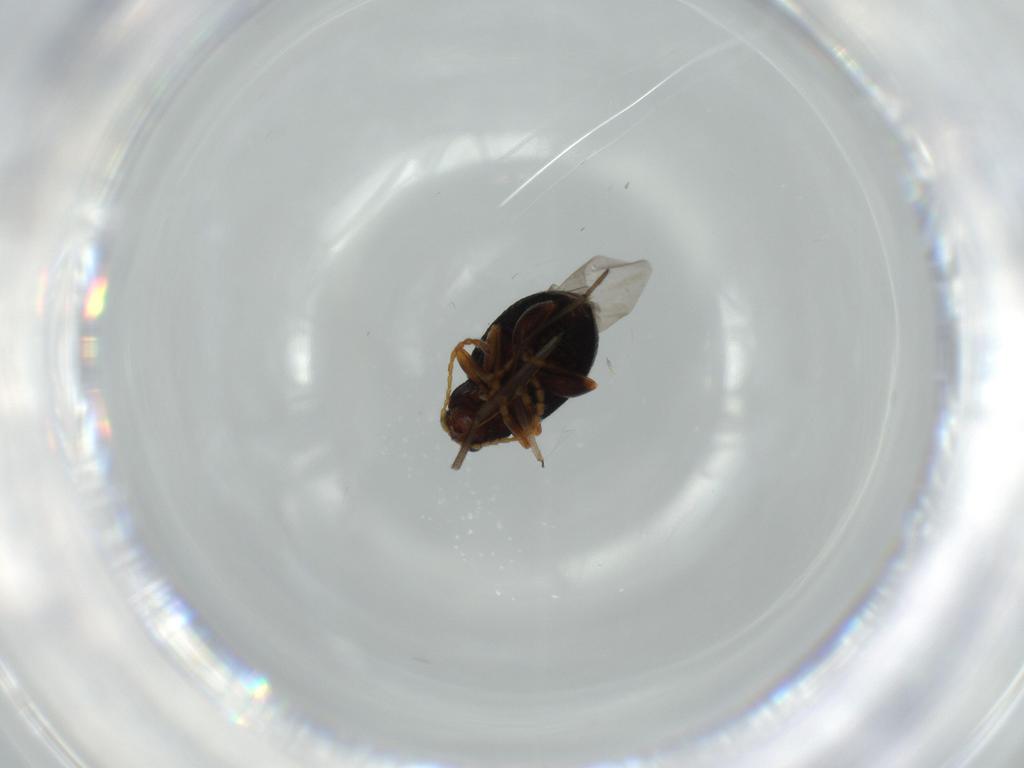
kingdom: Animalia
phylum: Arthropoda
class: Insecta
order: Coleoptera
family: Chrysomelidae
